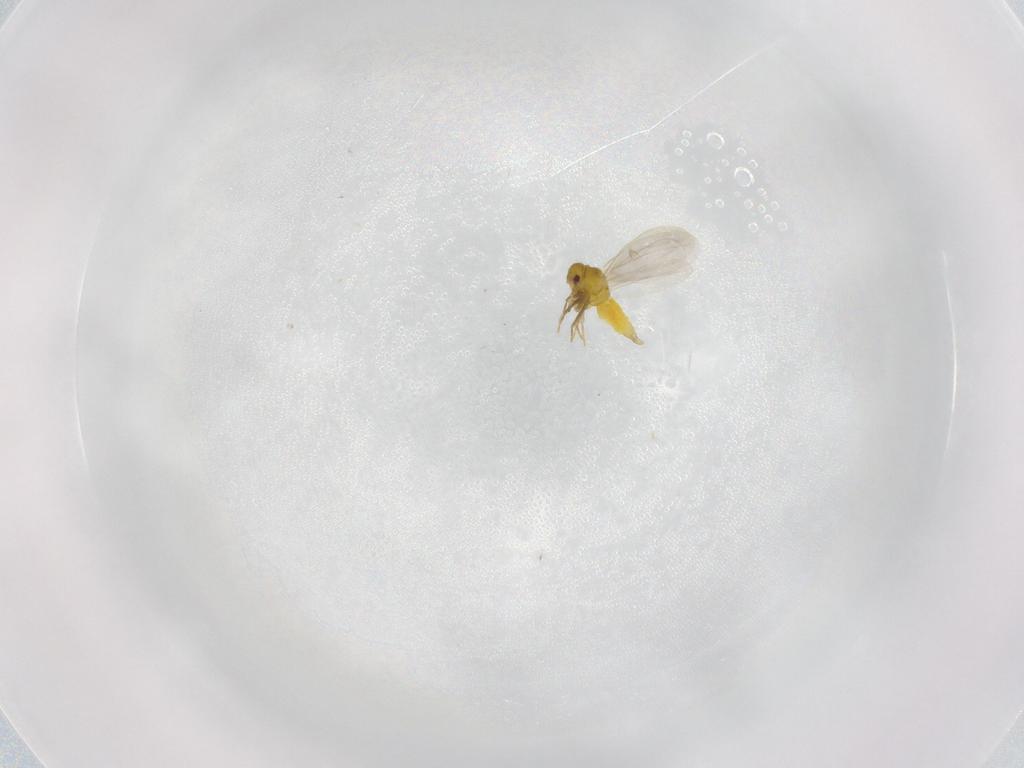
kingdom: Animalia
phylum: Arthropoda
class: Insecta
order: Hemiptera
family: Aleyrodidae
